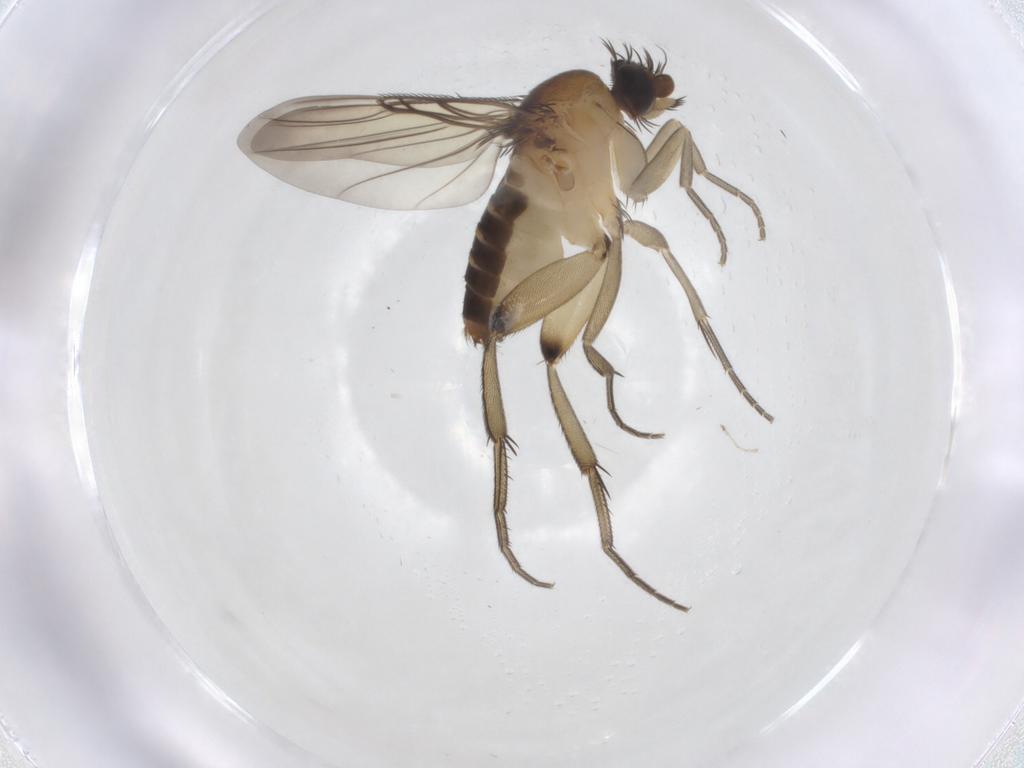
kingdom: Animalia
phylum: Arthropoda
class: Insecta
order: Diptera
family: Phoridae
